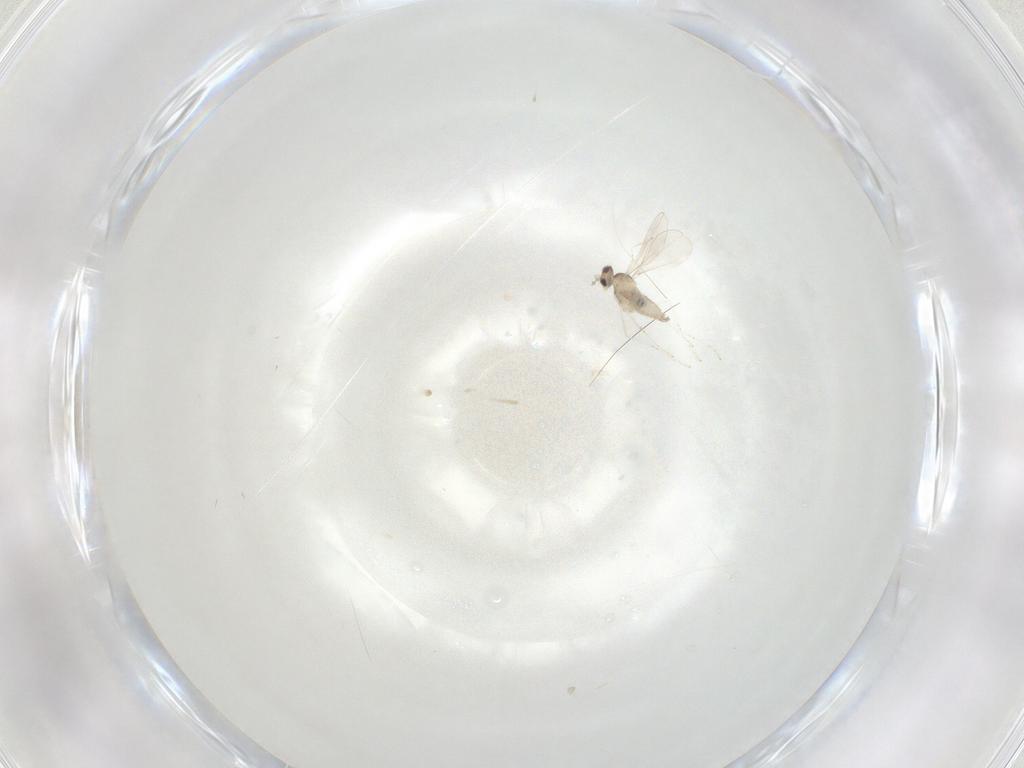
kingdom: Animalia
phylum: Arthropoda
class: Insecta
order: Diptera
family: Cecidomyiidae
